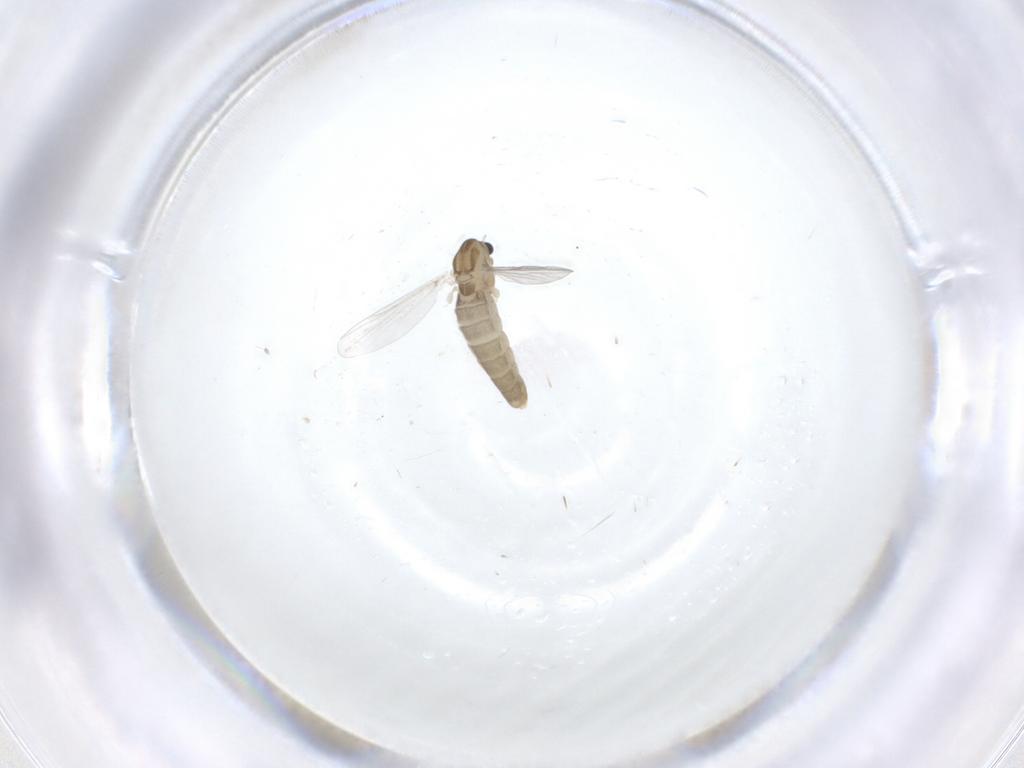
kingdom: Animalia
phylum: Arthropoda
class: Insecta
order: Diptera
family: Chironomidae
